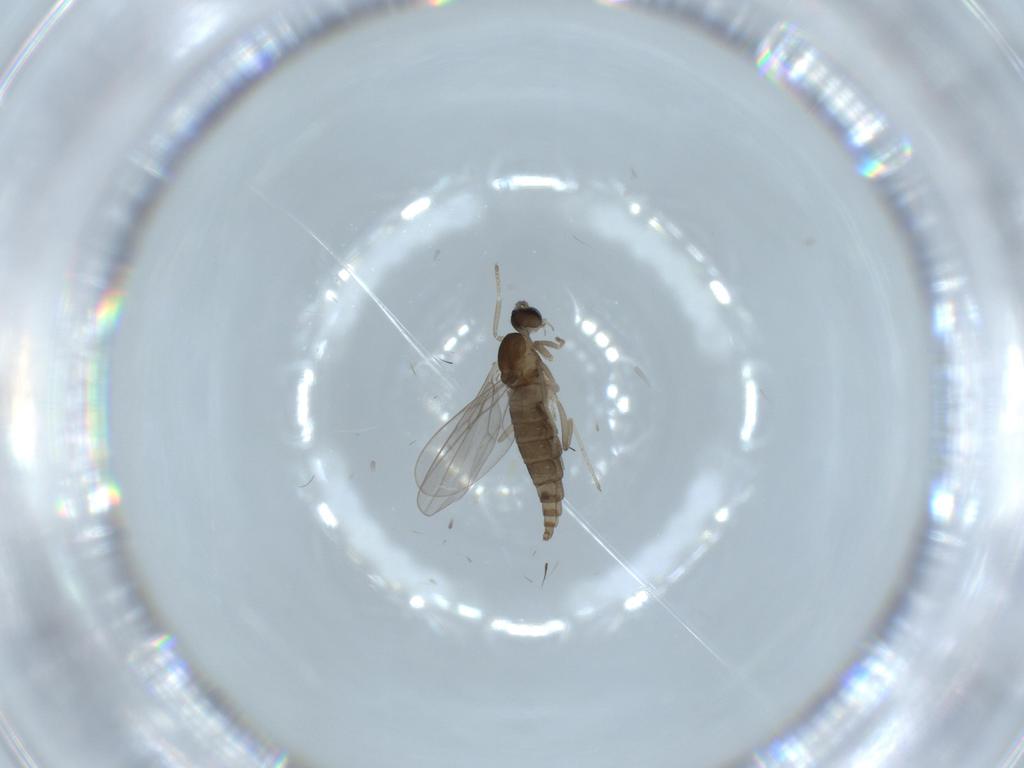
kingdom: Animalia
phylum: Arthropoda
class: Insecta
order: Diptera
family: Cecidomyiidae
